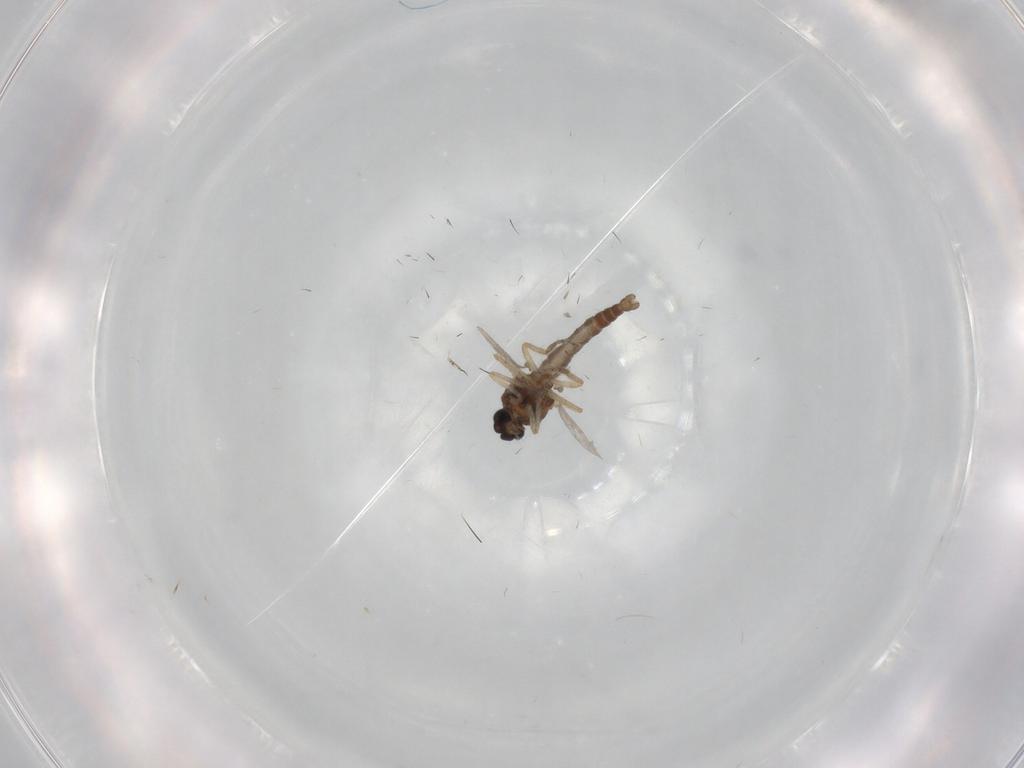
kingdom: Animalia
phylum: Arthropoda
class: Insecta
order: Diptera
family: Ceratopogonidae
